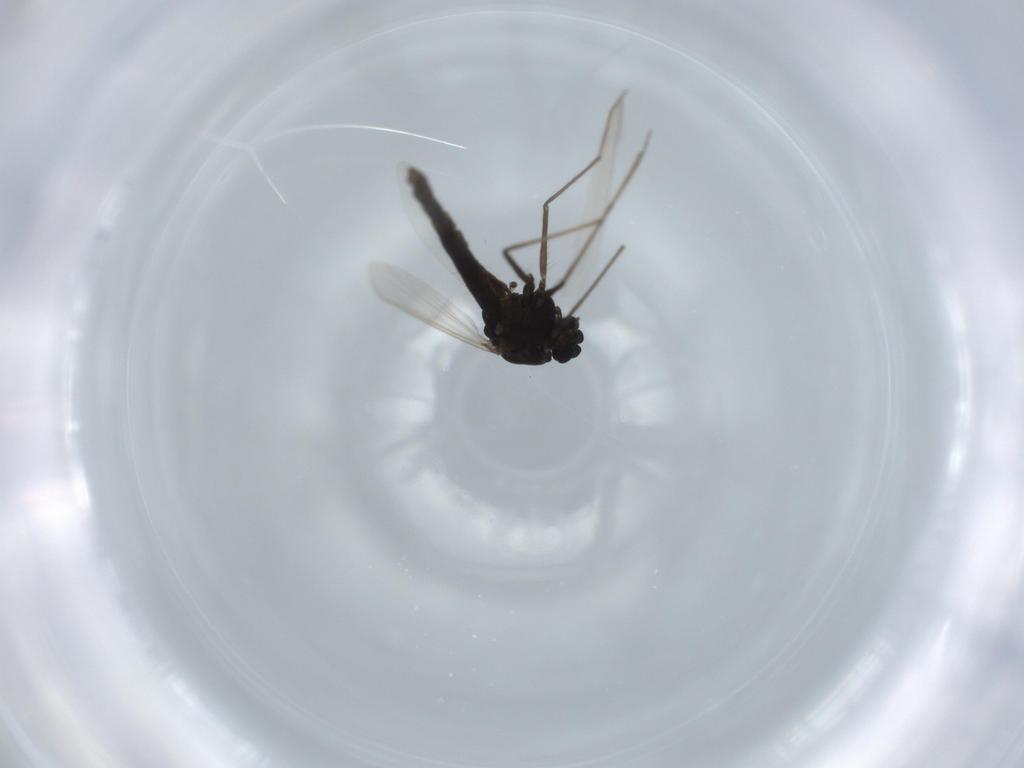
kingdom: Animalia
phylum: Arthropoda
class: Insecta
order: Diptera
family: Chironomidae
